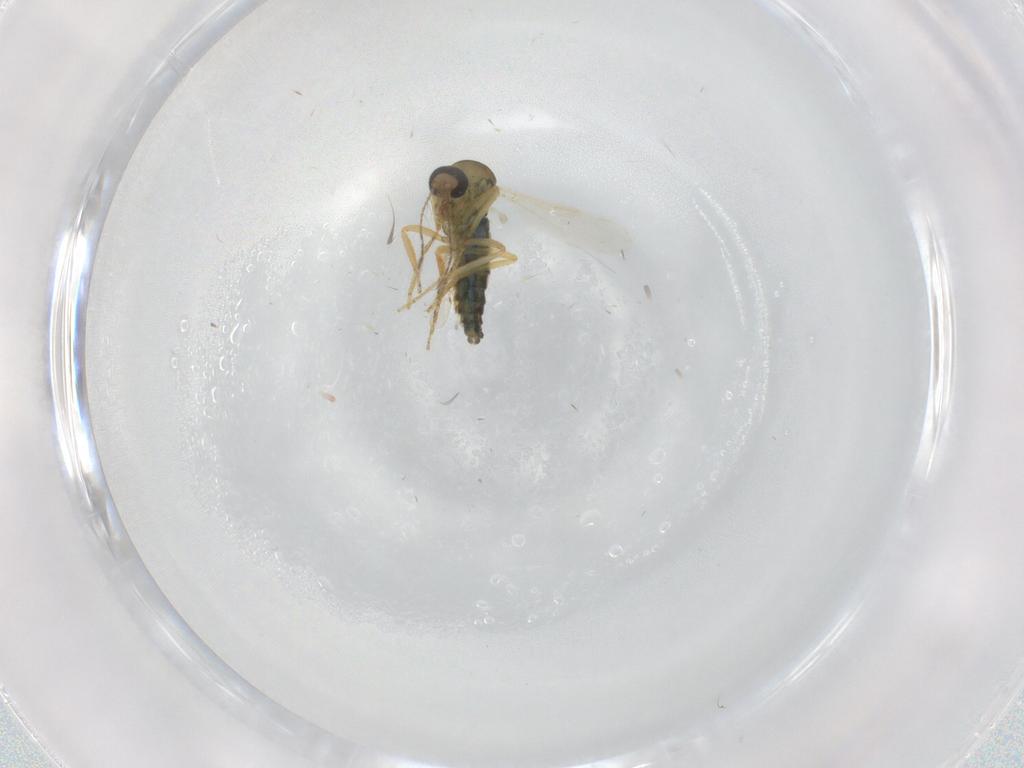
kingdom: Animalia
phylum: Arthropoda
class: Insecta
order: Diptera
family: Ceratopogonidae
